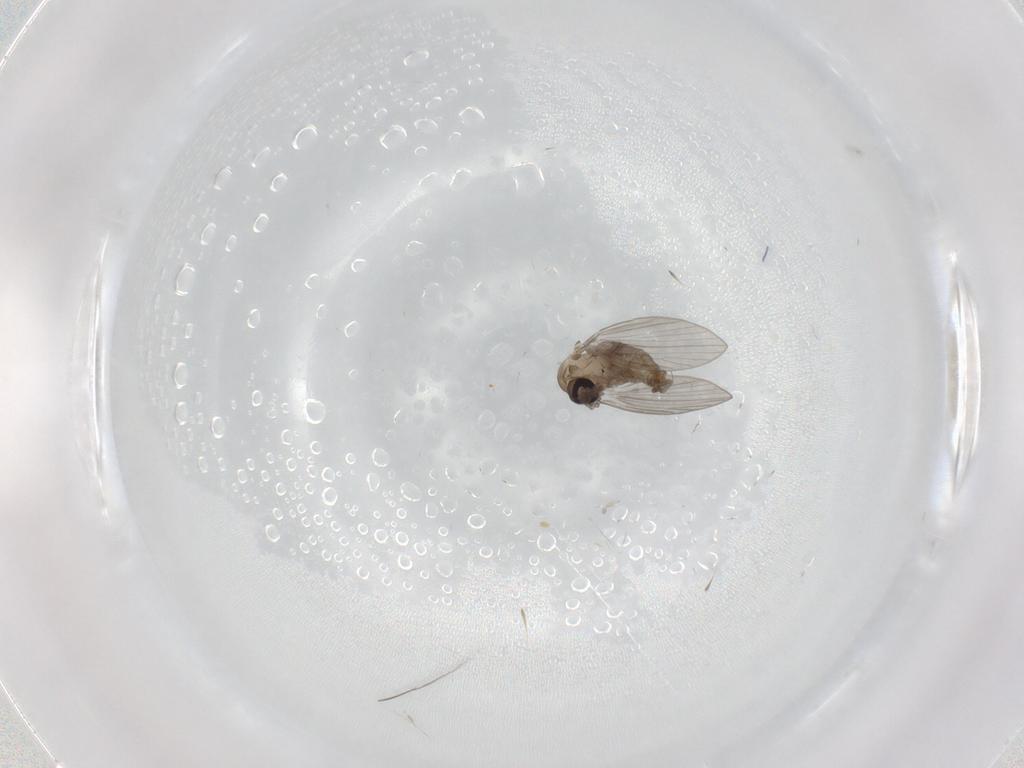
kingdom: Animalia
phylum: Arthropoda
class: Insecta
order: Diptera
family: Psychodidae
